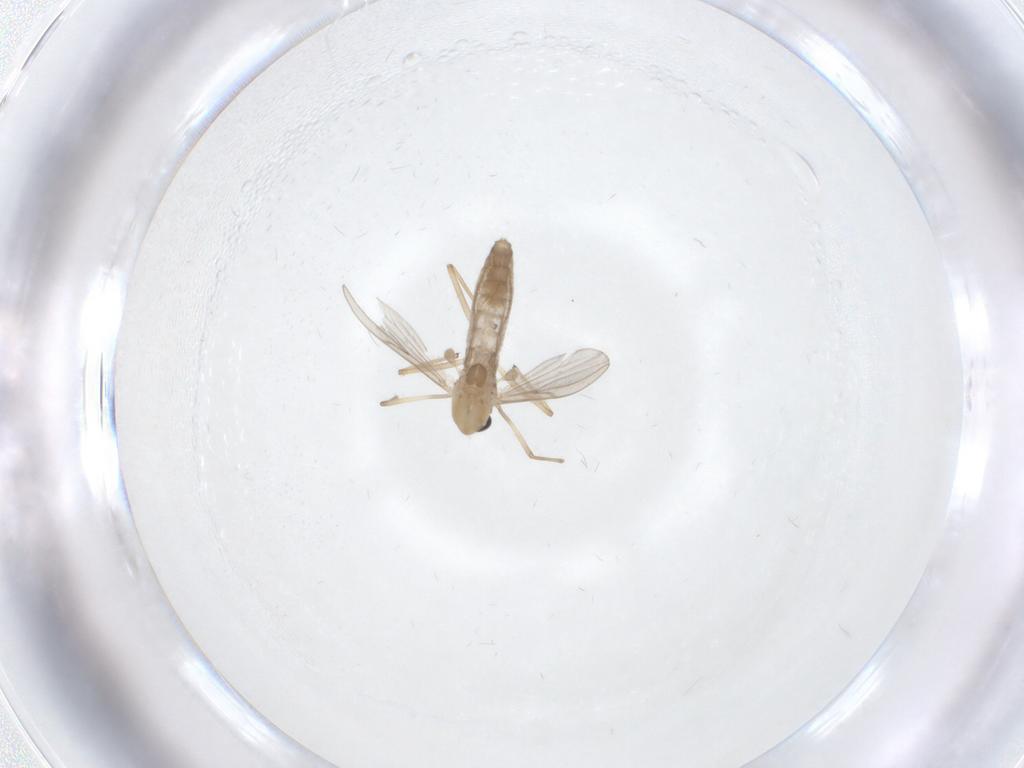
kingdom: Animalia
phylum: Arthropoda
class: Insecta
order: Diptera
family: Chironomidae
